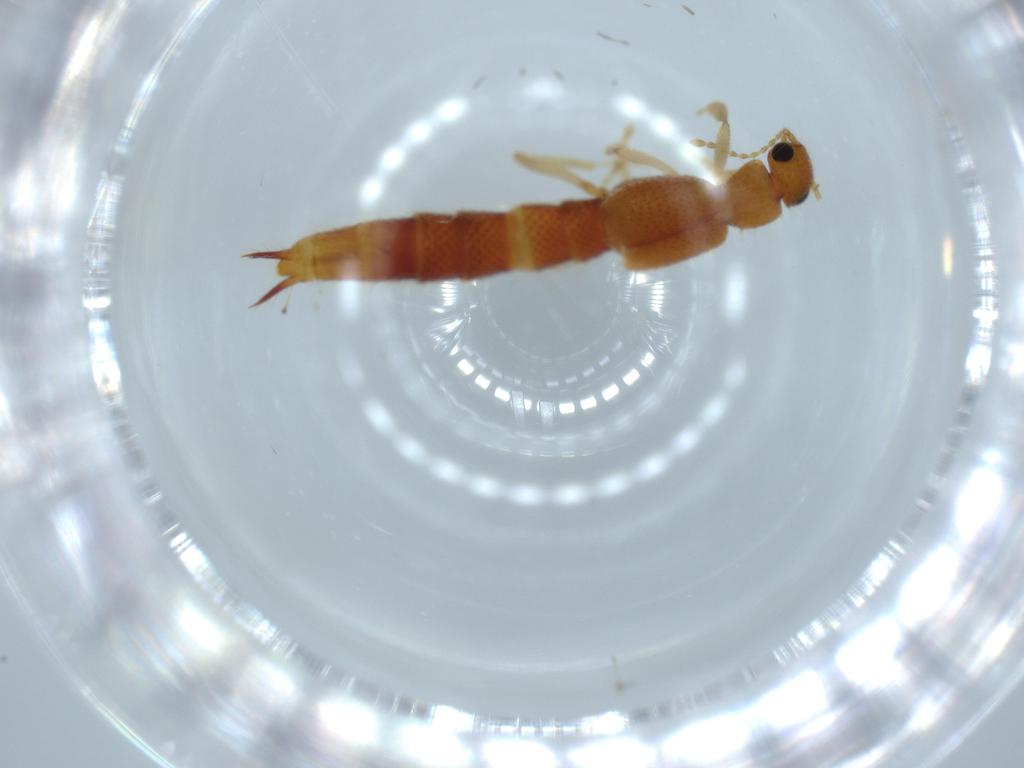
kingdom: Animalia
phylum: Arthropoda
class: Insecta
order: Coleoptera
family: Staphylinidae
